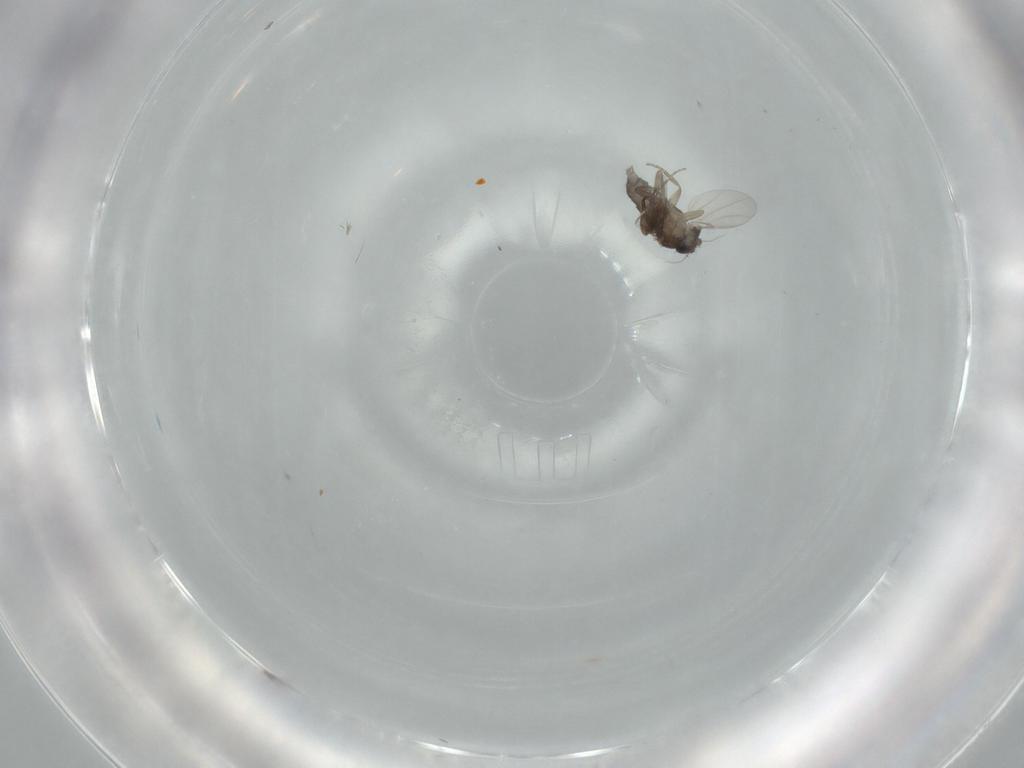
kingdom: Animalia
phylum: Arthropoda
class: Insecta
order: Diptera
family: Phoridae
